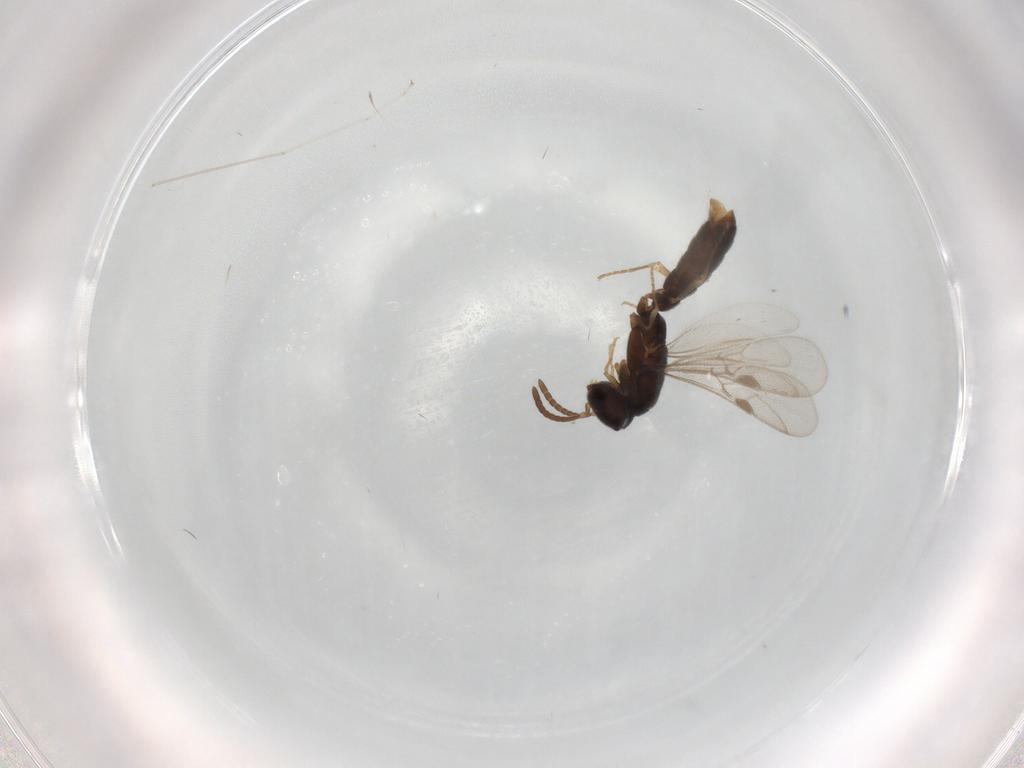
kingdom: Animalia
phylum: Arthropoda
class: Insecta
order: Hymenoptera
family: Formicidae
